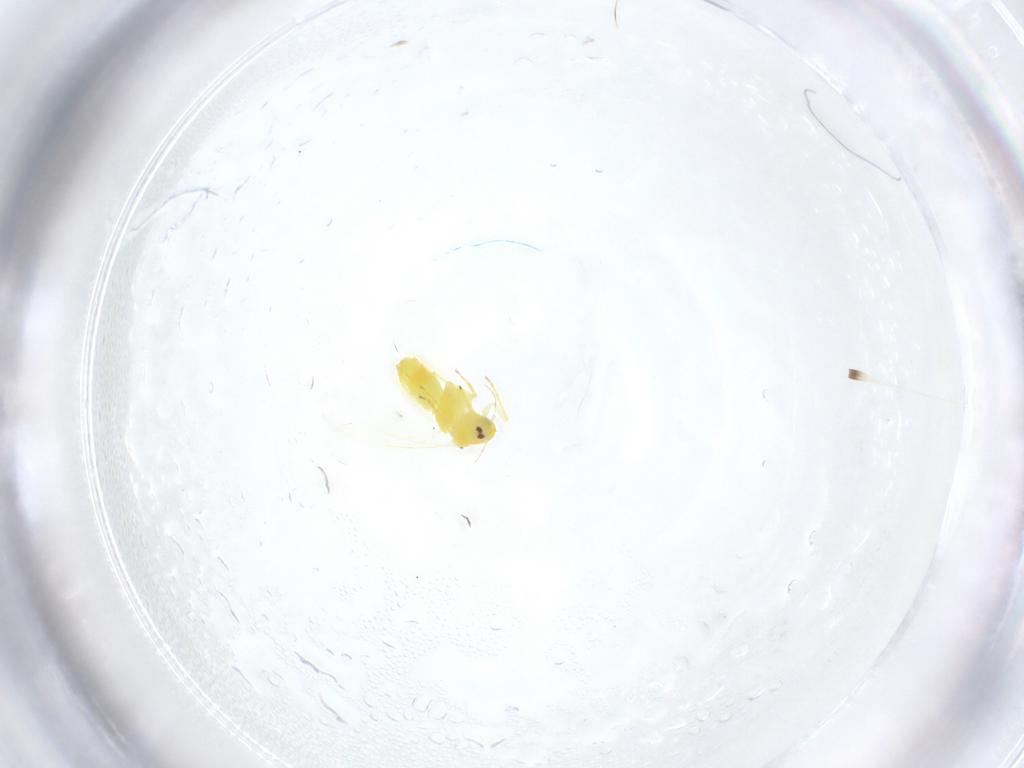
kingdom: Animalia
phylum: Arthropoda
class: Insecta
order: Hemiptera
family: Aleyrodidae
